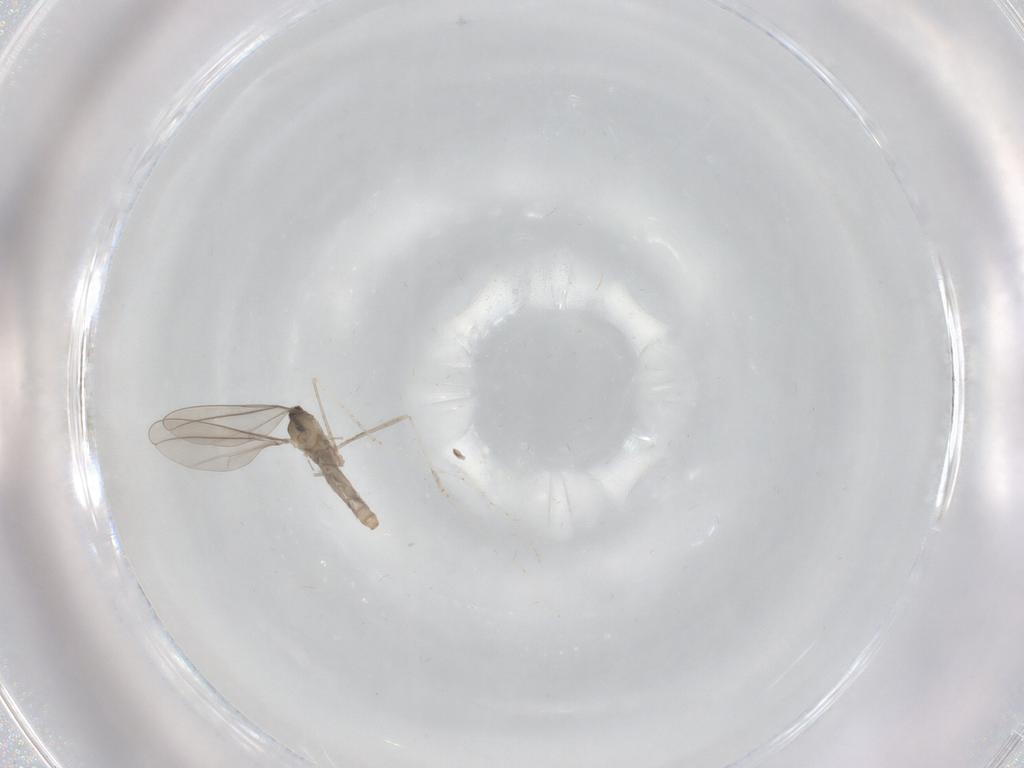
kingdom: Animalia
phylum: Arthropoda
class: Insecta
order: Diptera
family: Cecidomyiidae
